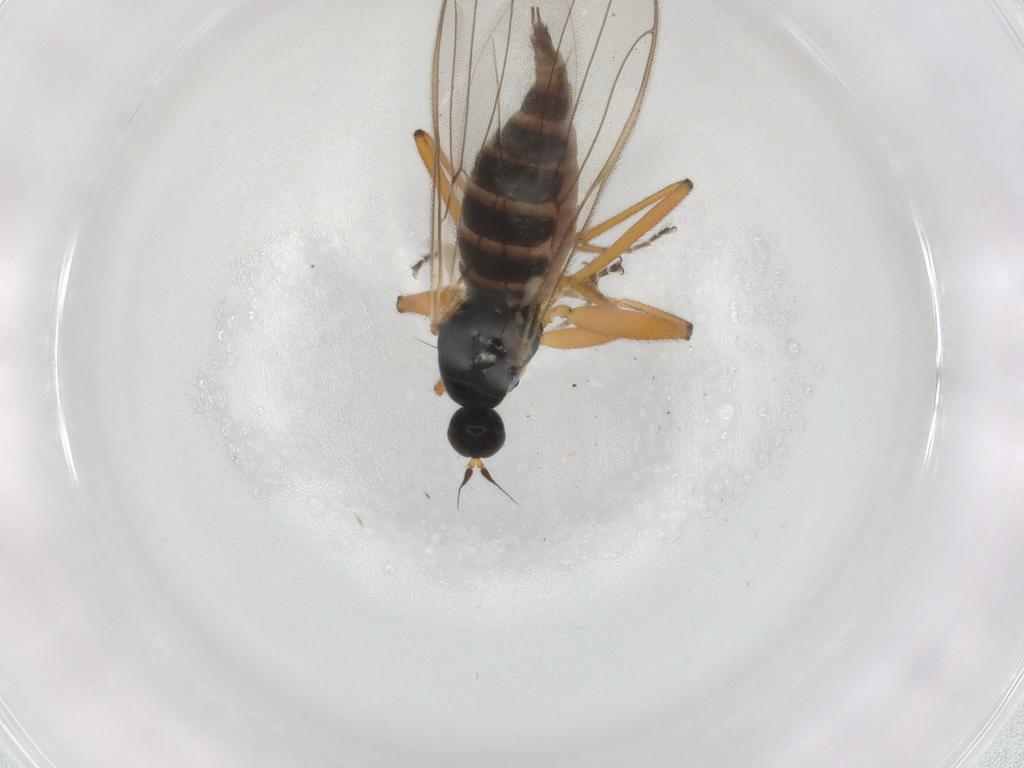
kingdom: Animalia
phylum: Arthropoda
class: Insecta
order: Diptera
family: Hybotidae
